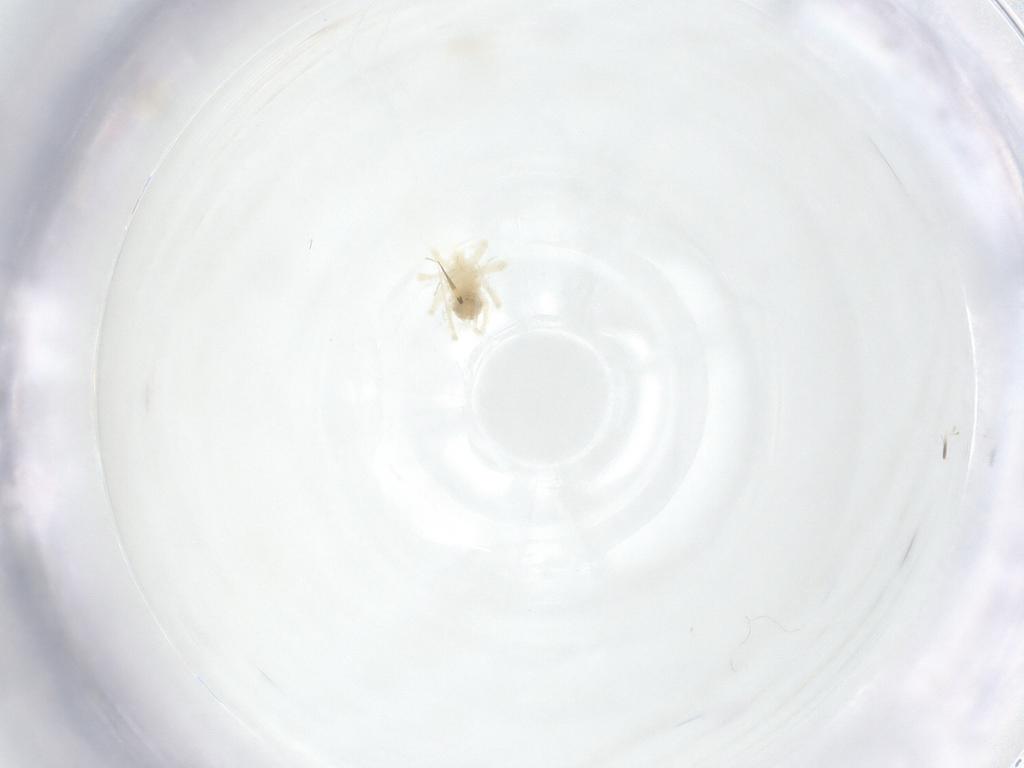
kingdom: Animalia
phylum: Arthropoda
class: Arachnida
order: Trombidiformes
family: Anystidae
